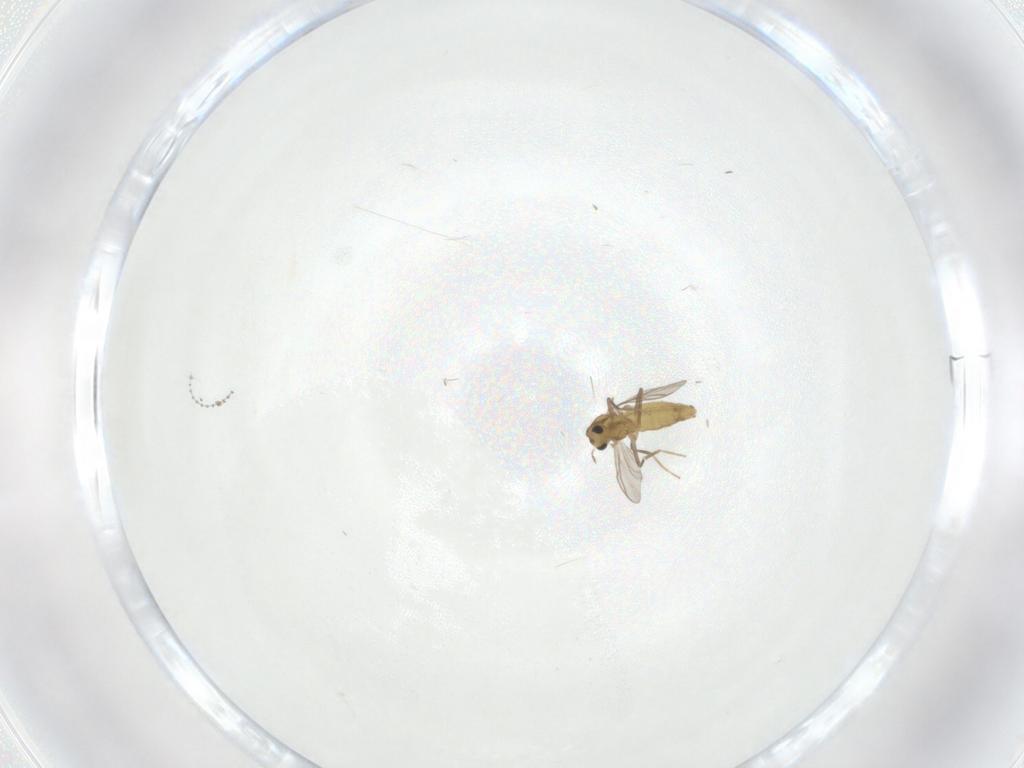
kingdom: Animalia
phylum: Arthropoda
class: Insecta
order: Diptera
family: Chironomidae
